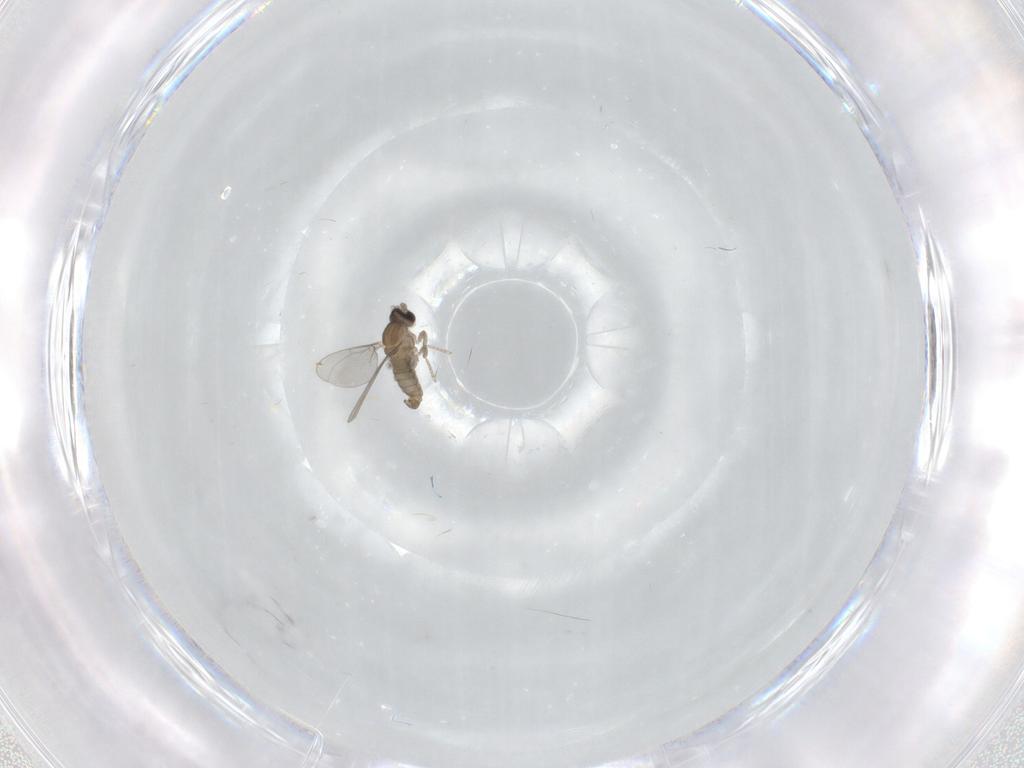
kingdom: Animalia
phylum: Arthropoda
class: Insecta
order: Diptera
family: Cecidomyiidae
